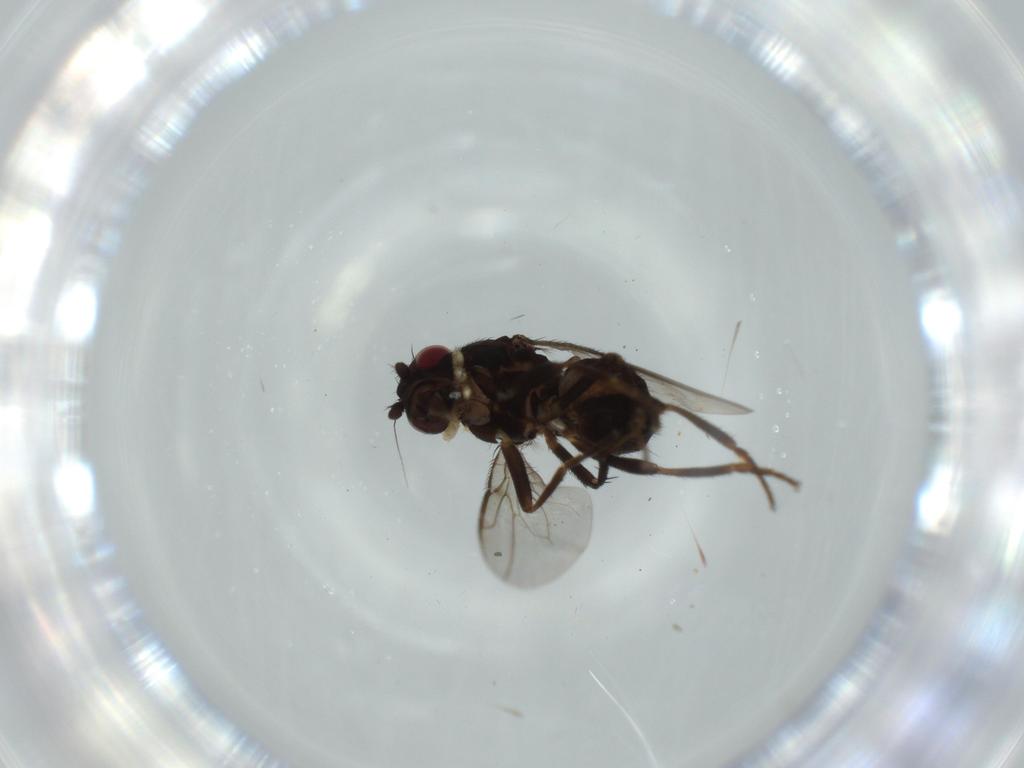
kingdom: Animalia
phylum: Arthropoda
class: Insecta
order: Diptera
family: Sphaeroceridae
